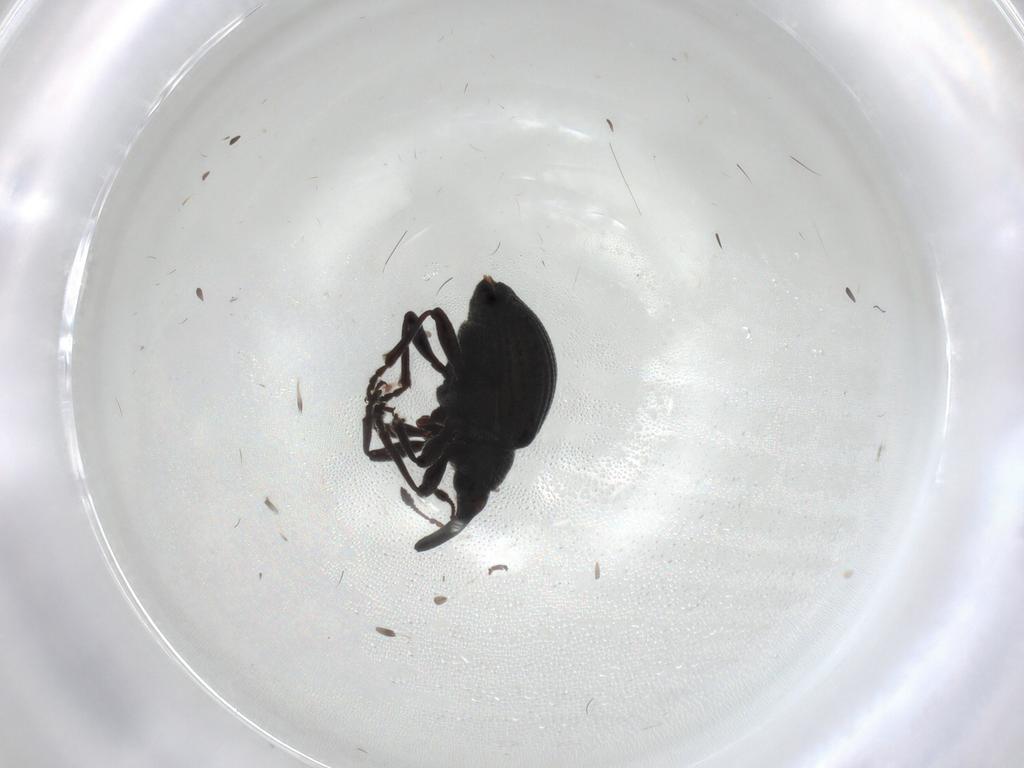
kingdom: Animalia
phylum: Arthropoda
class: Insecta
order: Coleoptera
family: Brentidae
